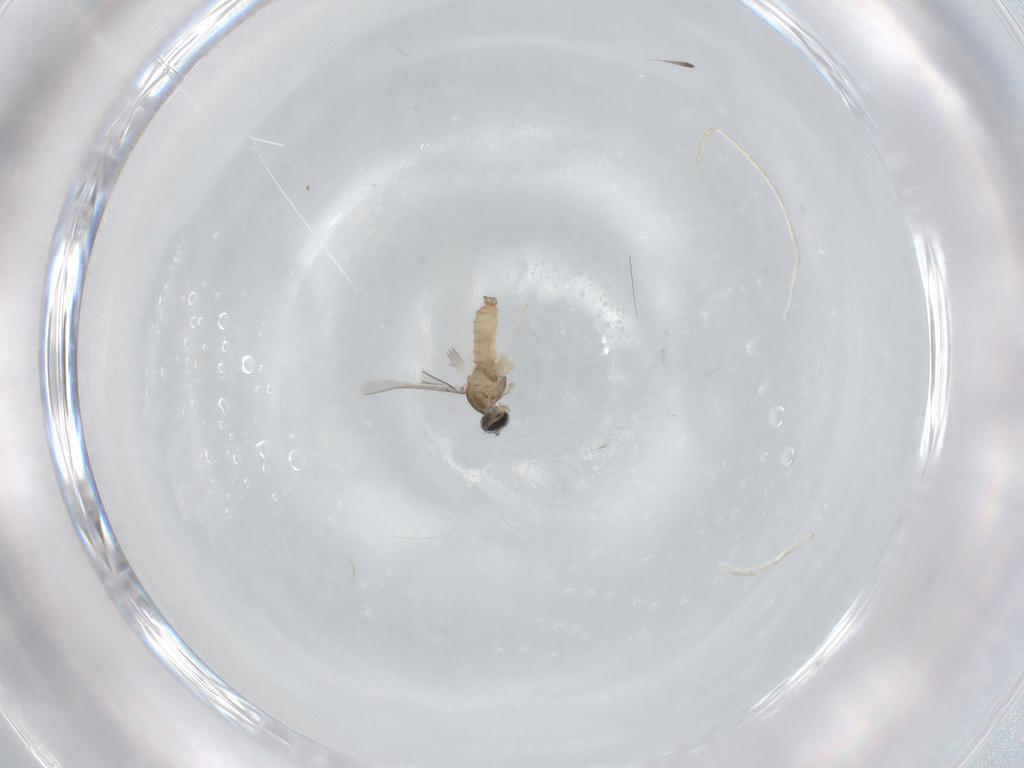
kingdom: Animalia
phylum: Arthropoda
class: Insecta
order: Diptera
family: Cecidomyiidae
